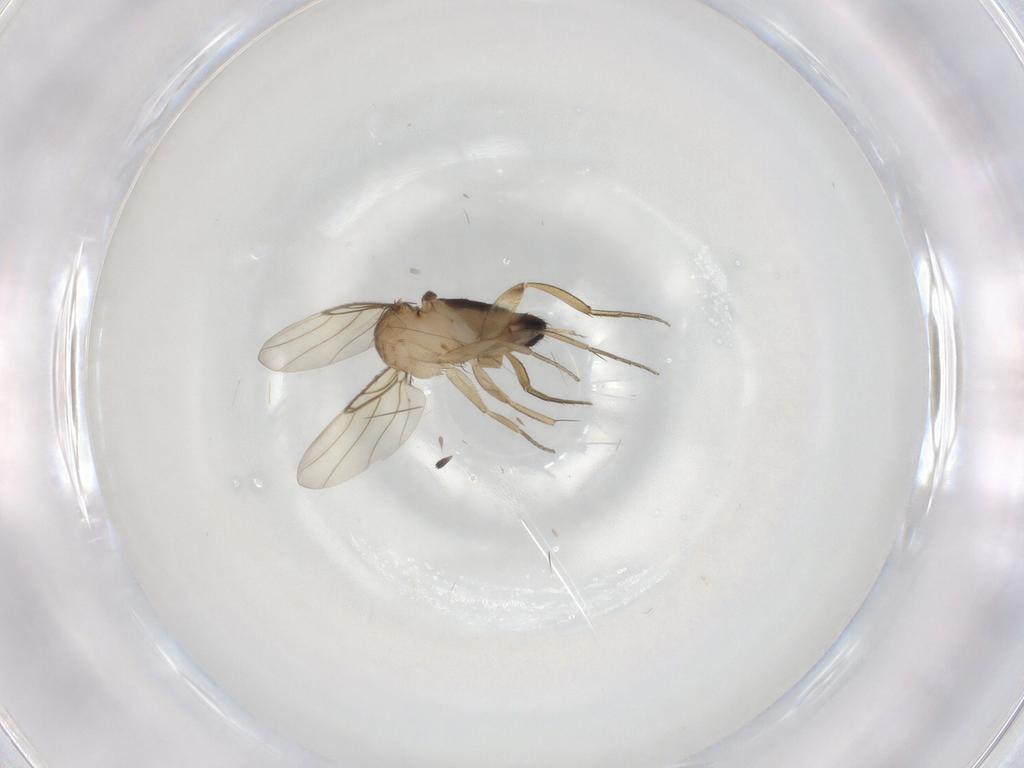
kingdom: Animalia
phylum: Arthropoda
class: Insecta
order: Diptera
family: Phoridae
